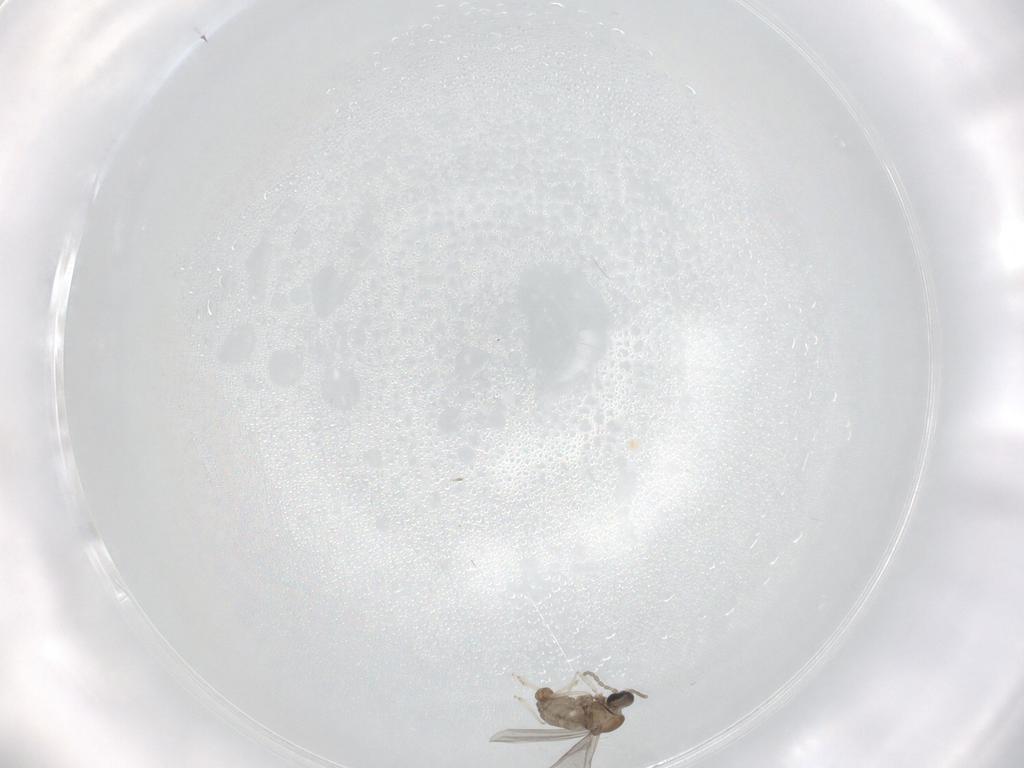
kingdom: Animalia
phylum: Arthropoda
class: Insecta
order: Diptera
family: Cecidomyiidae
